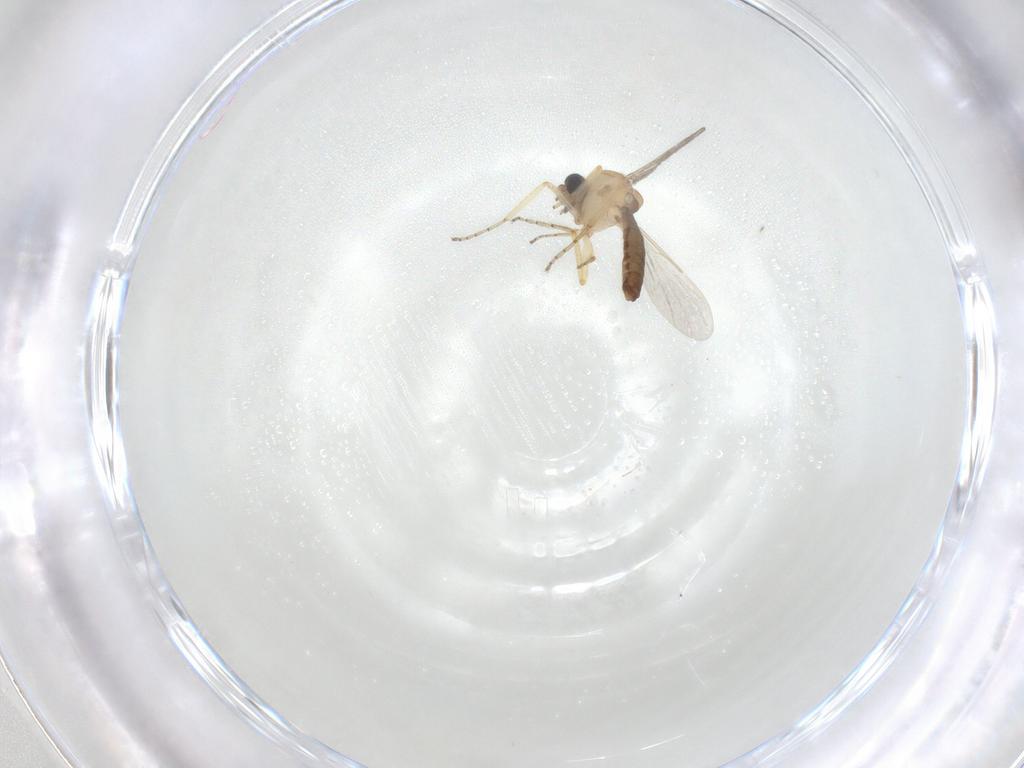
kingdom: Animalia
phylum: Arthropoda
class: Insecta
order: Diptera
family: Ceratopogonidae
